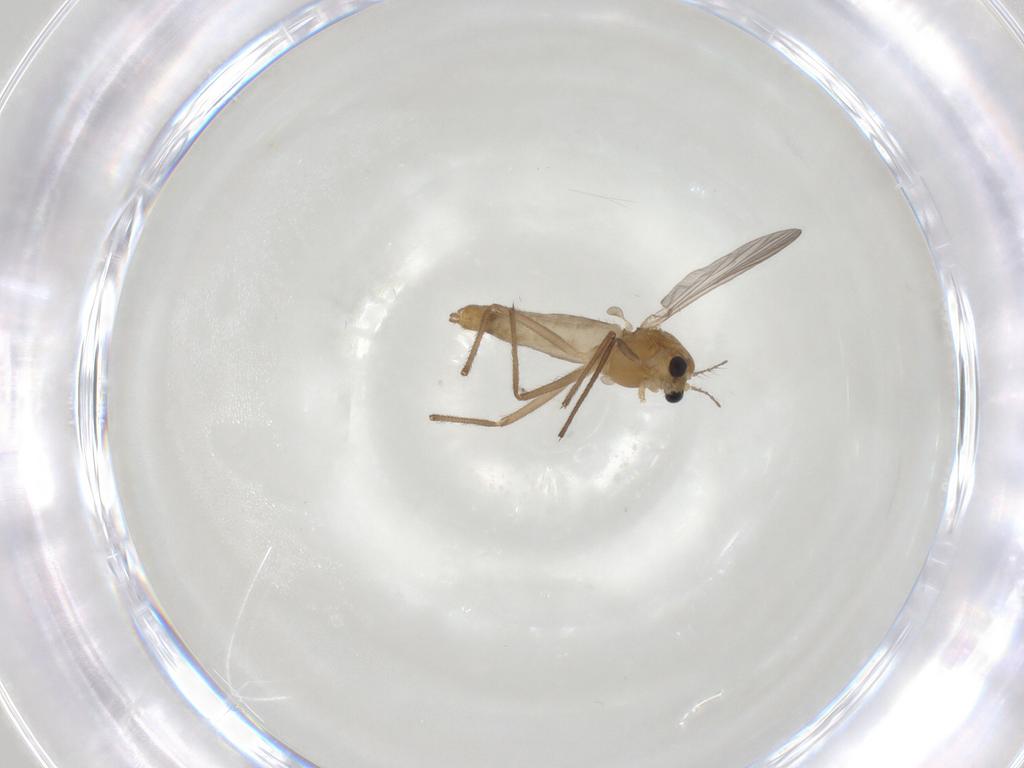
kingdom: Animalia
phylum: Arthropoda
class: Insecta
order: Diptera
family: Chironomidae
